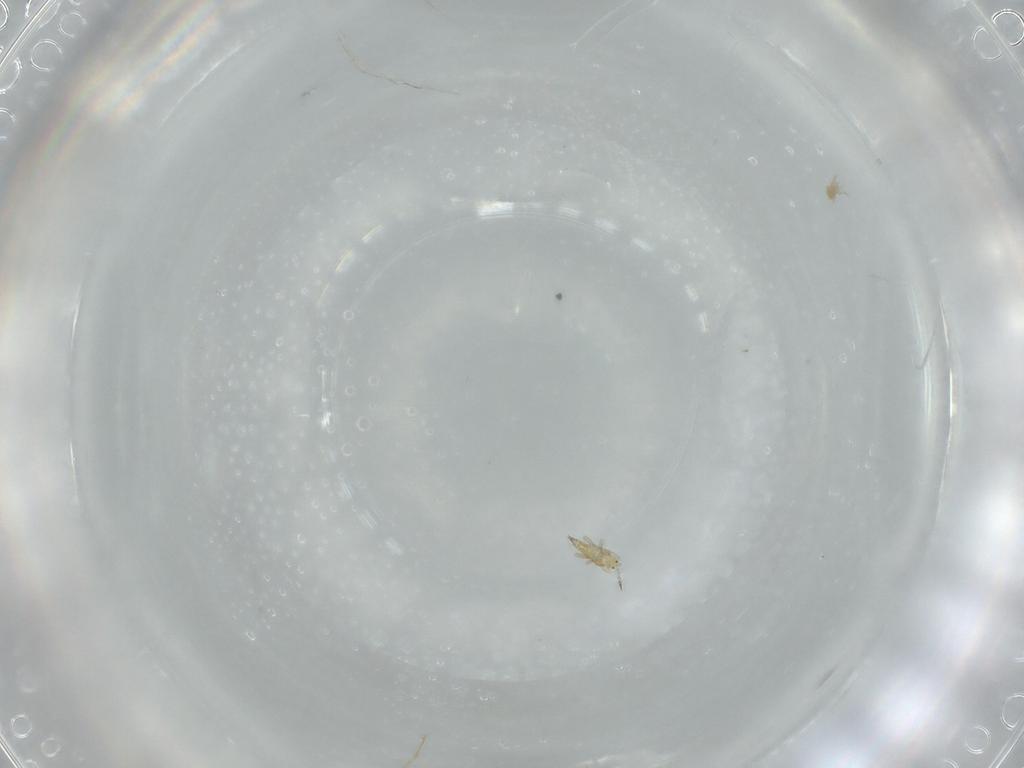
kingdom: Animalia
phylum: Arthropoda
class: Insecta
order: Thysanoptera
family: Phlaeothripidae
